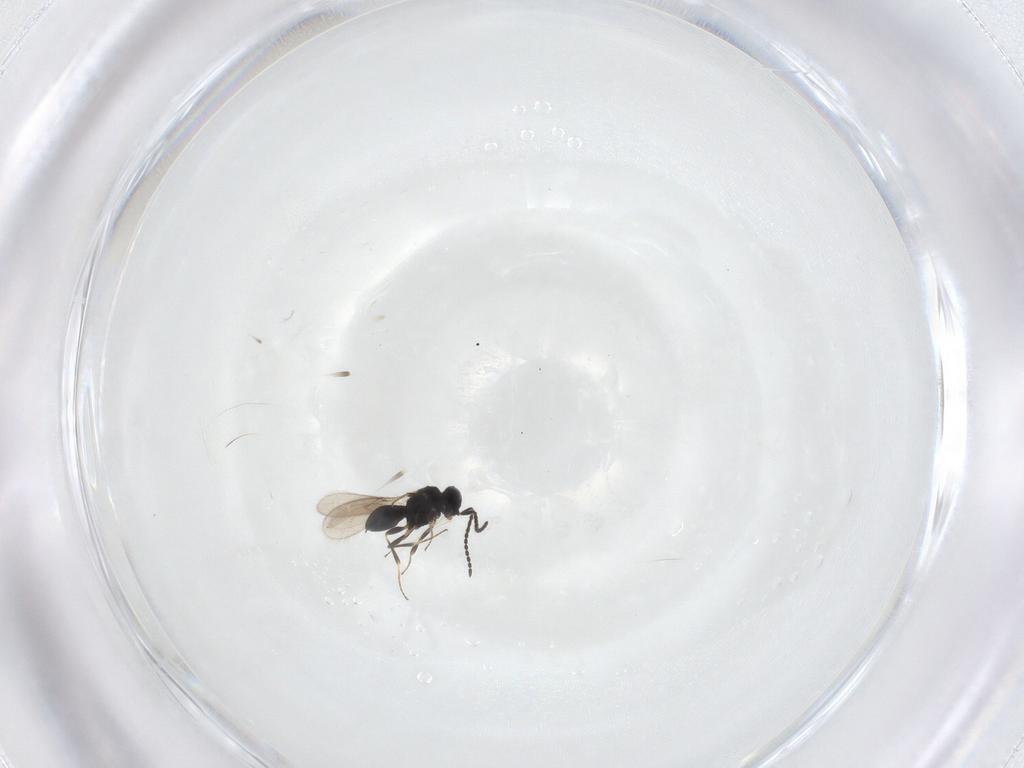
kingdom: Animalia
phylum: Arthropoda
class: Insecta
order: Hymenoptera
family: Scelionidae
